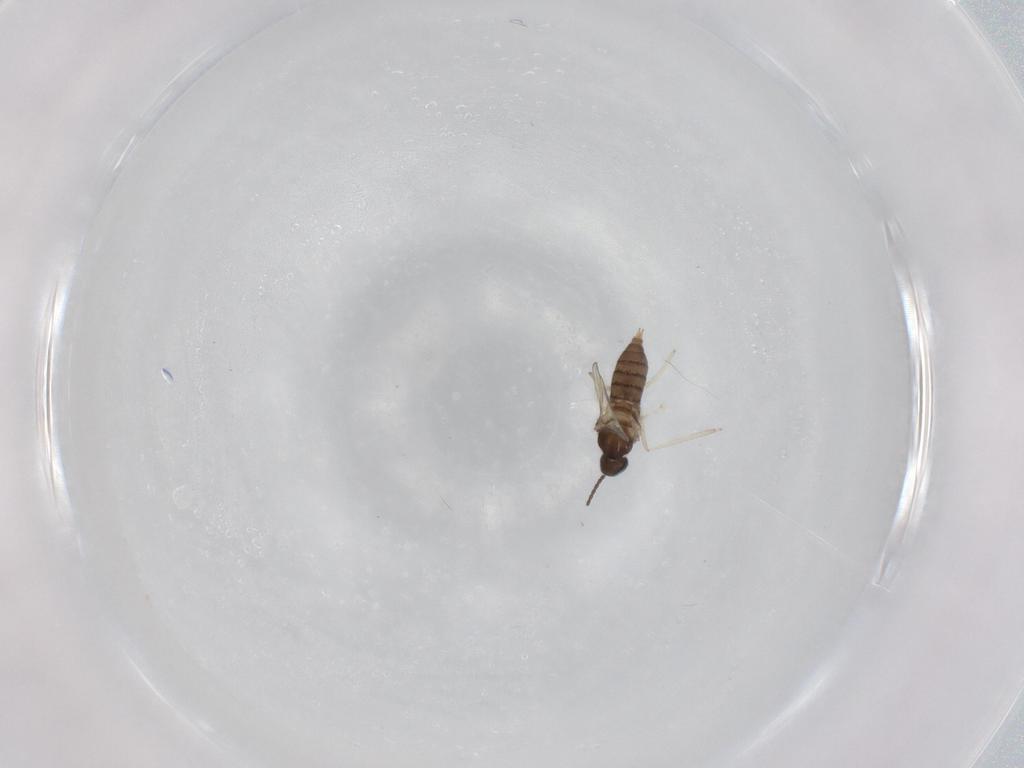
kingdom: Animalia
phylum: Arthropoda
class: Insecta
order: Diptera
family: Cecidomyiidae
